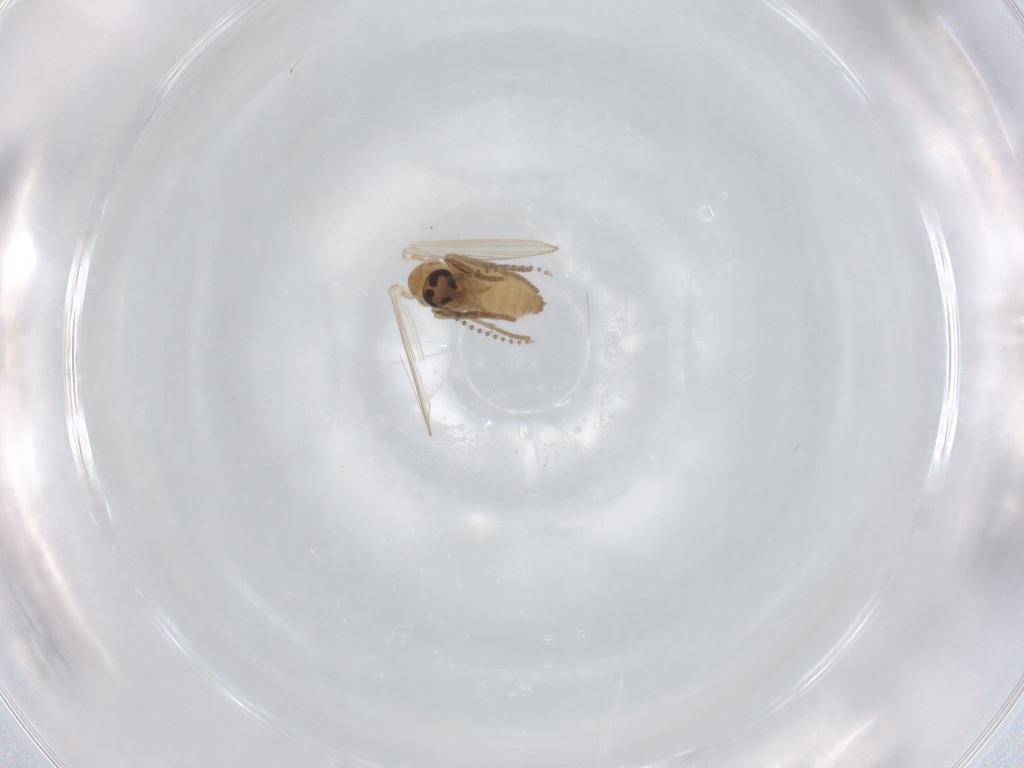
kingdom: Animalia
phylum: Arthropoda
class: Insecta
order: Diptera
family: Psychodidae
